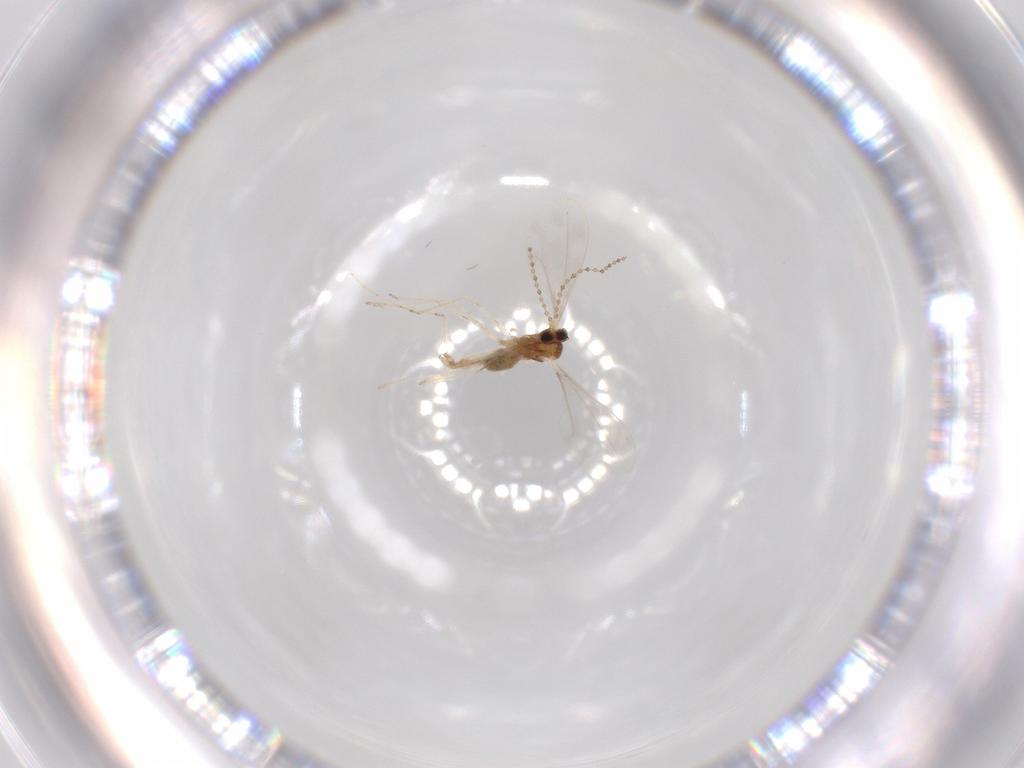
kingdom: Animalia
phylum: Arthropoda
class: Insecta
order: Diptera
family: Cecidomyiidae
